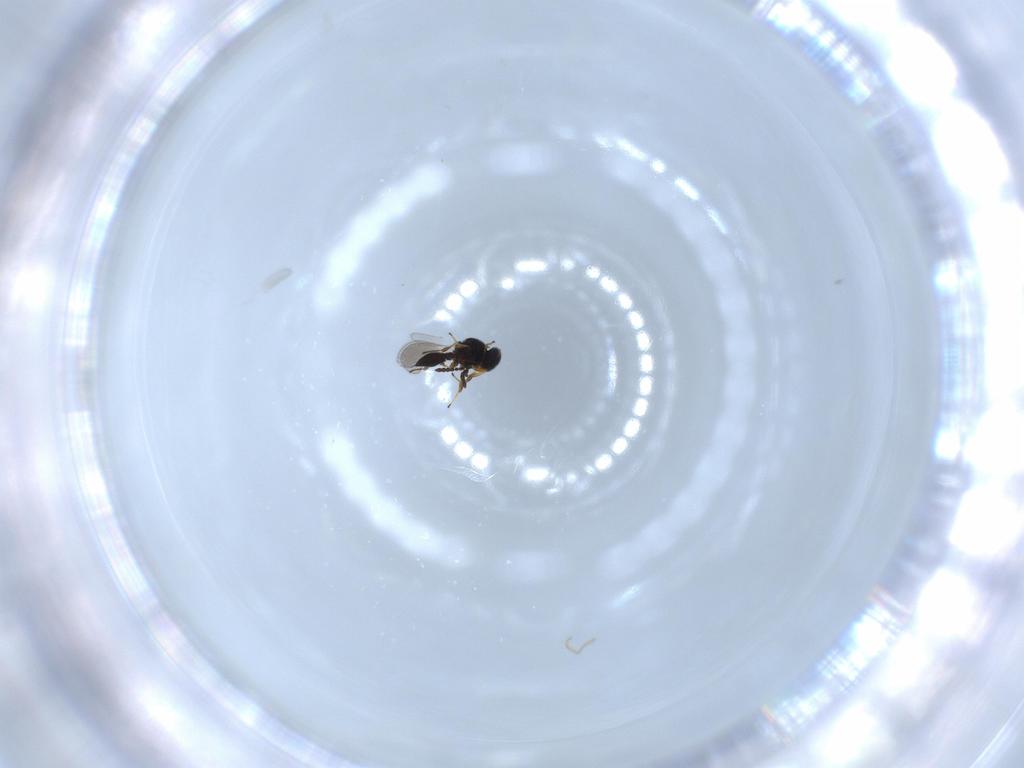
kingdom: Animalia
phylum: Arthropoda
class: Insecta
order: Hymenoptera
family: Platygastridae
